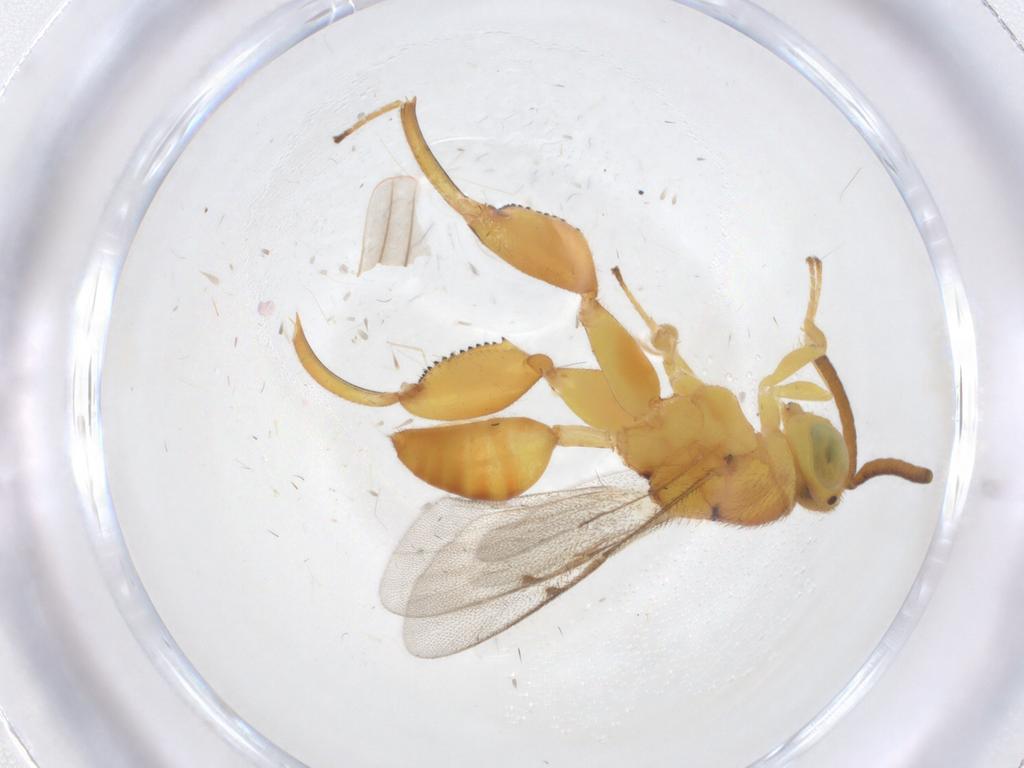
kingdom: Animalia
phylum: Arthropoda
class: Insecta
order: Hymenoptera
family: Chalcididae
